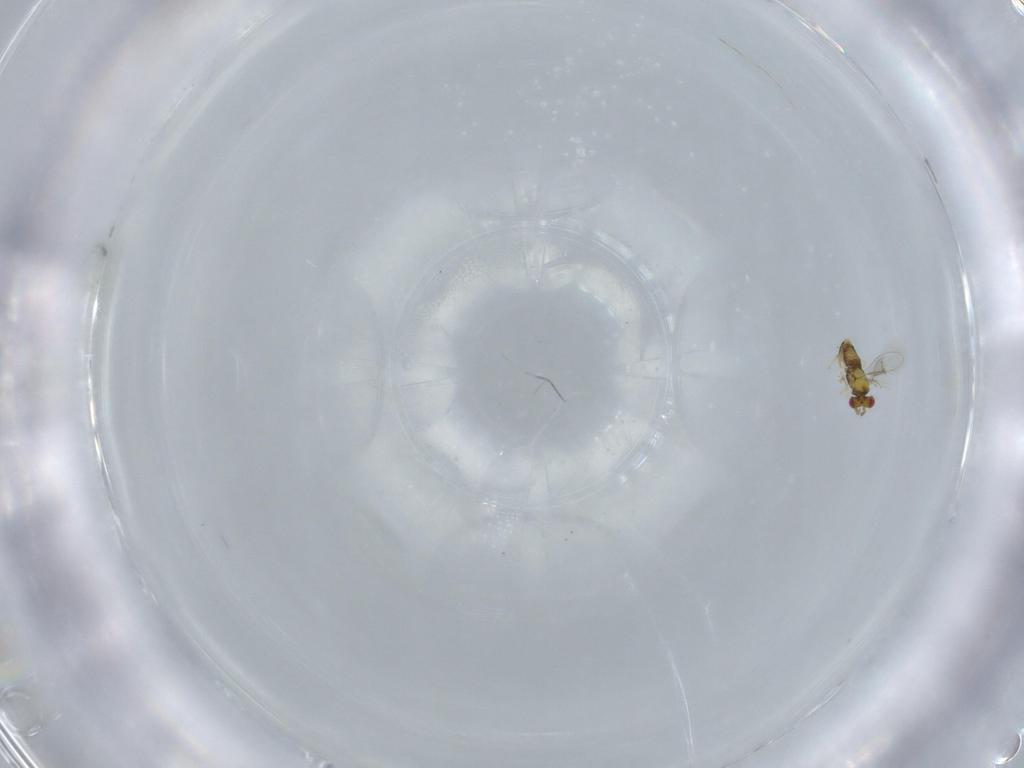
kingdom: Animalia
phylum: Arthropoda
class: Insecta
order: Hymenoptera
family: Aphelinidae
